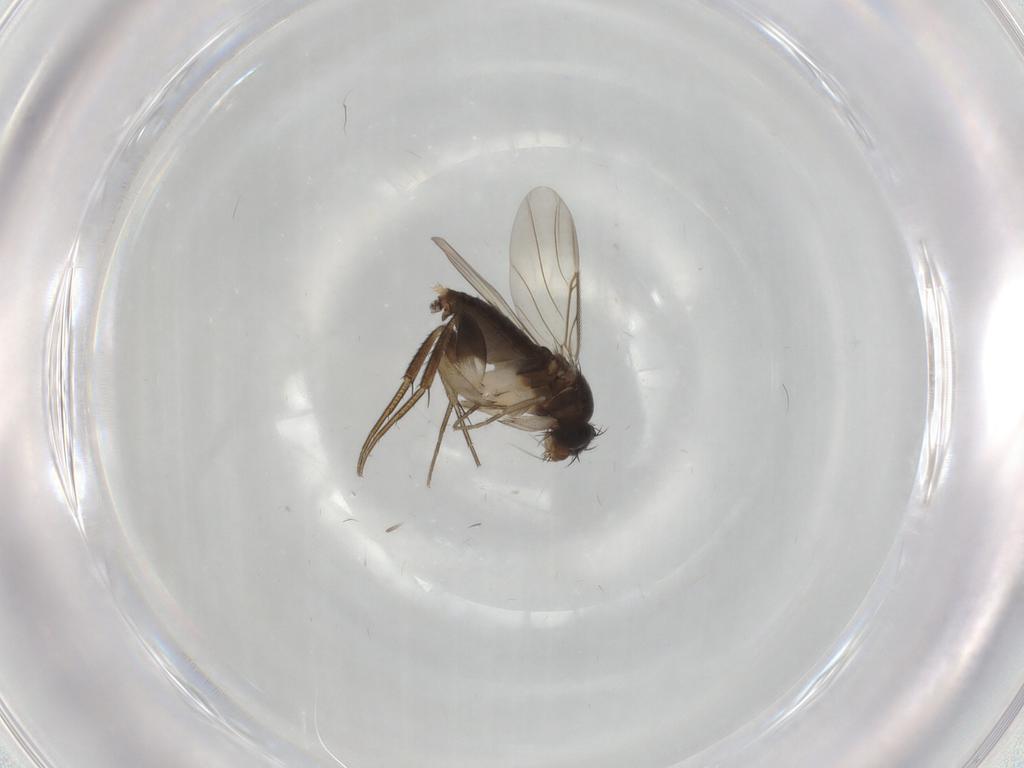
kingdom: Animalia
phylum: Arthropoda
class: Insecta
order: Diptera
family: Phoridae
